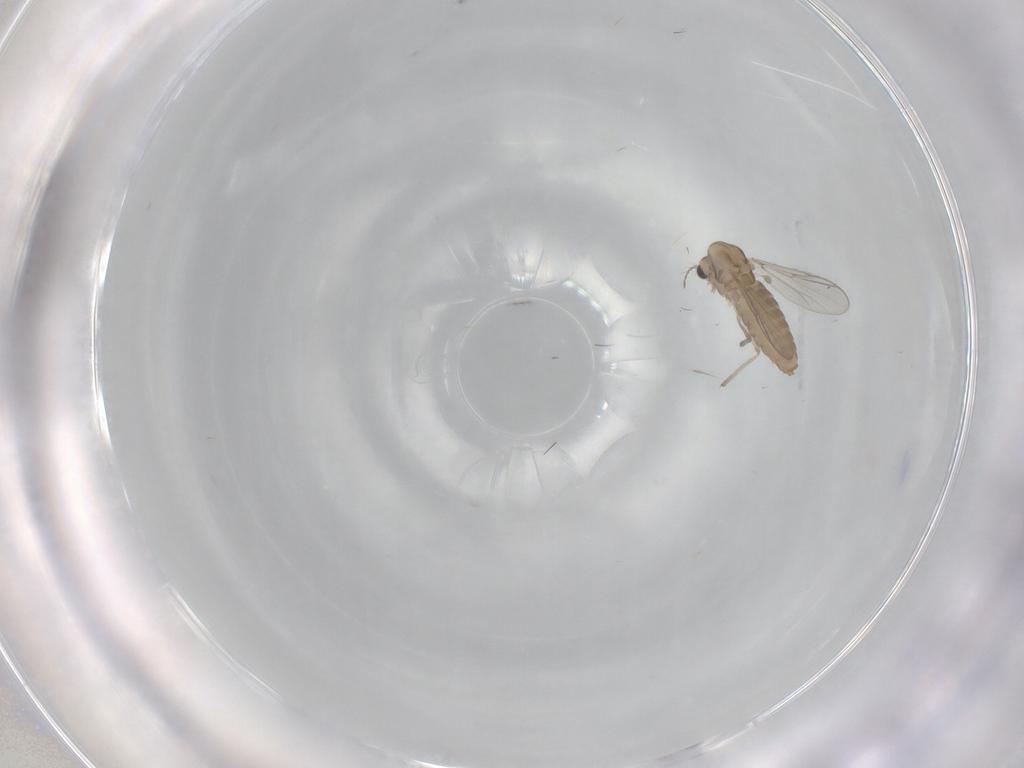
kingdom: Animalia
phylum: Arthropoda
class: Insecta
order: Diptera
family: Chironomidae
